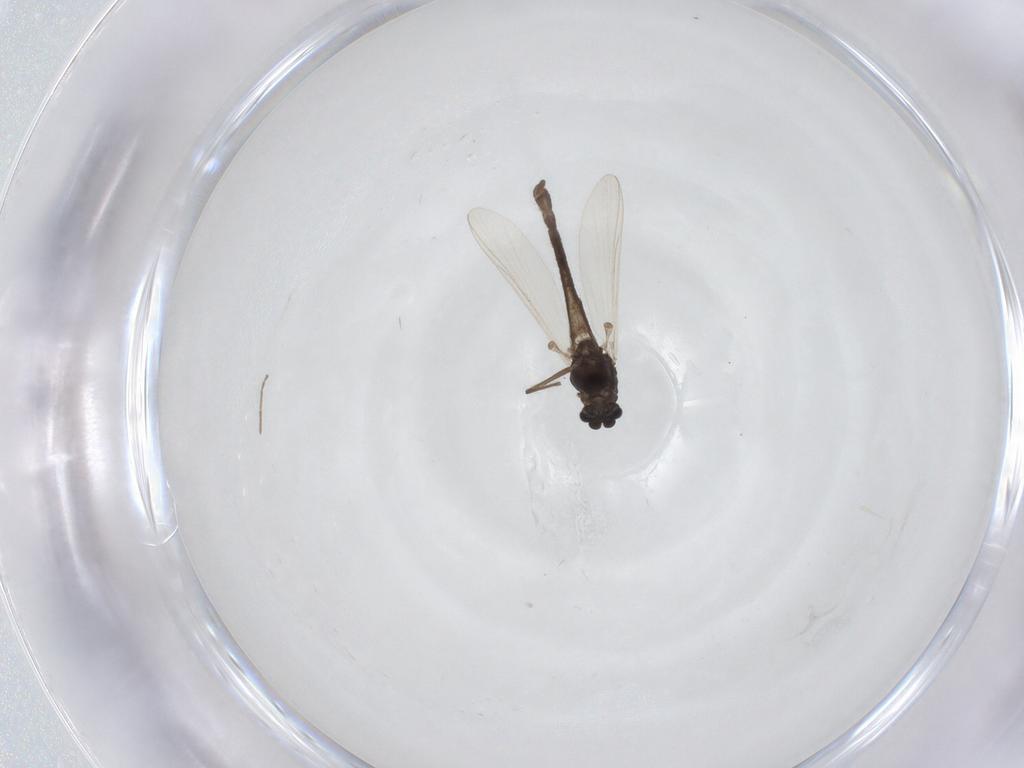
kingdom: Animalia
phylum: Arthropoda
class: Insecta
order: Diptera
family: Chironomidae
